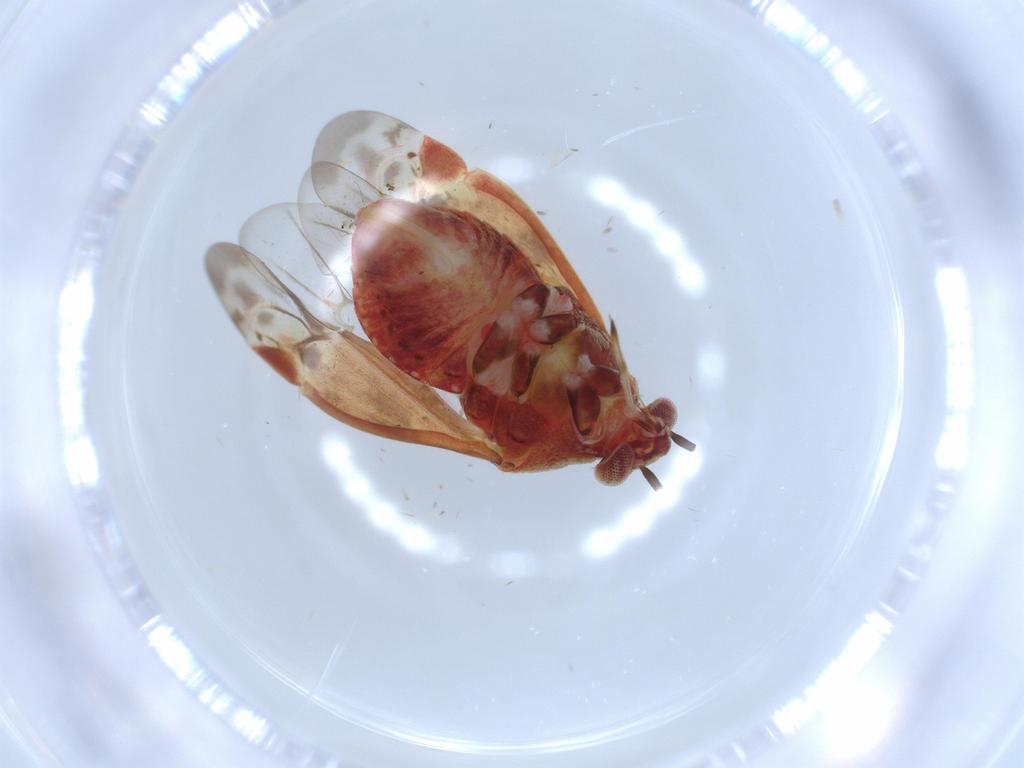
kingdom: Animalia
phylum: Arthropoda
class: Insecta
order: Hemiptera
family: Miridae
